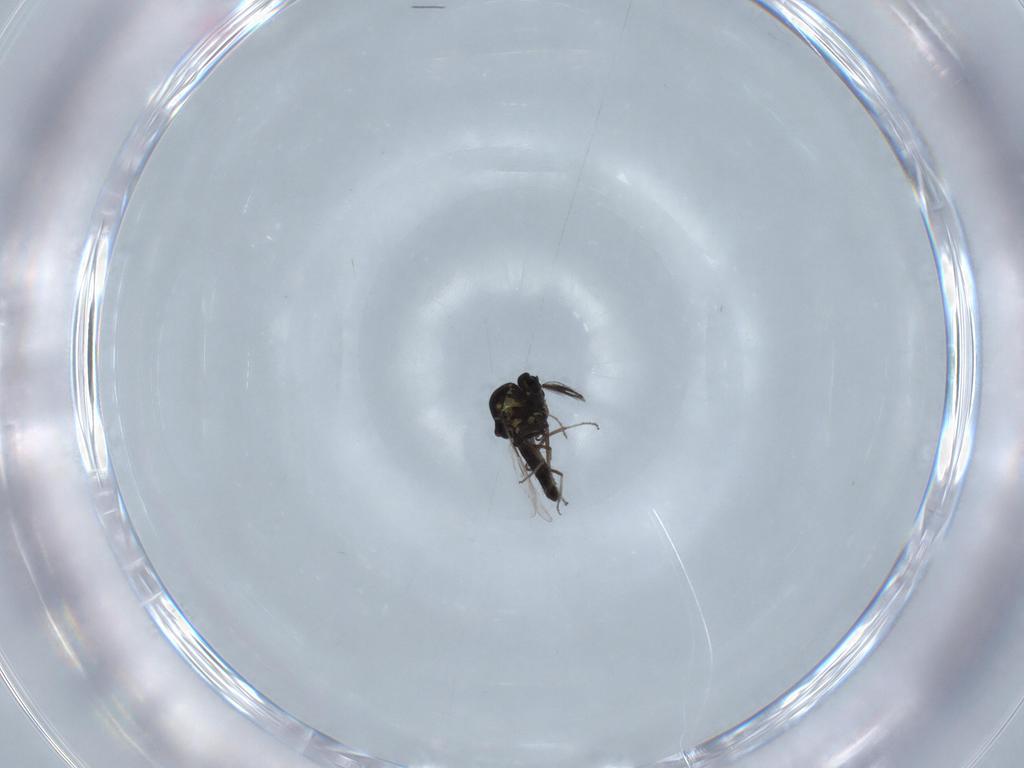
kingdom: Animalia
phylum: Arthropoda
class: Insecta
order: Diptera
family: Ceratopogonidae
